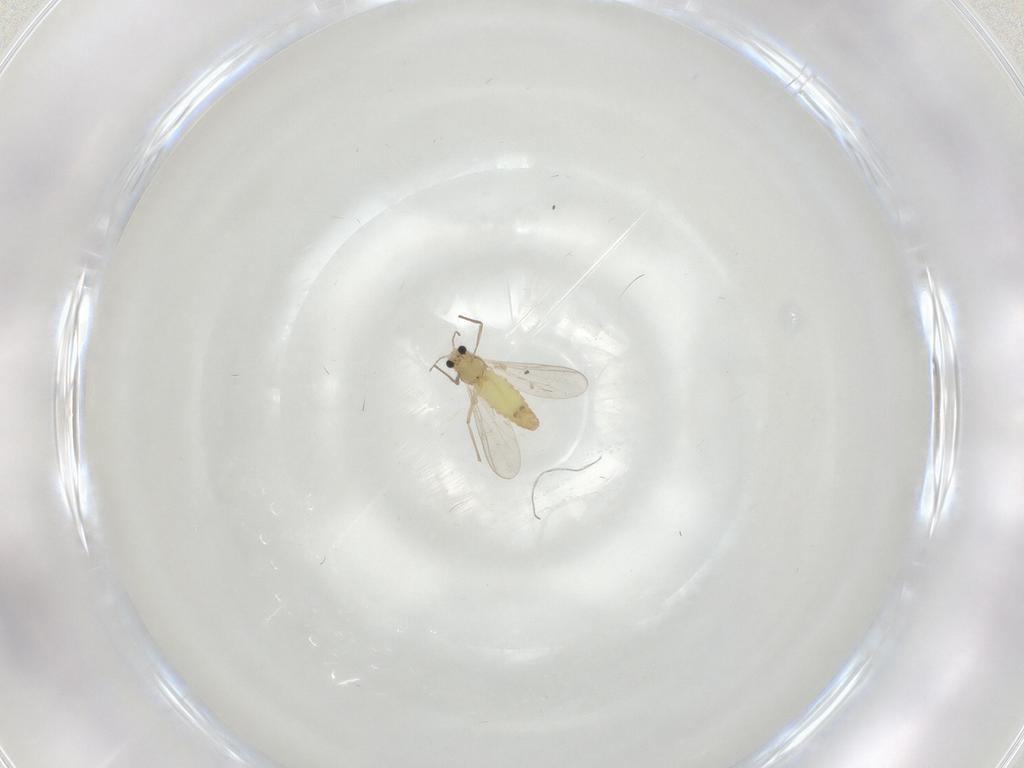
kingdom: Animalia
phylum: Arthropoda
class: Insecta
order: Diptera
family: Chironomidae
